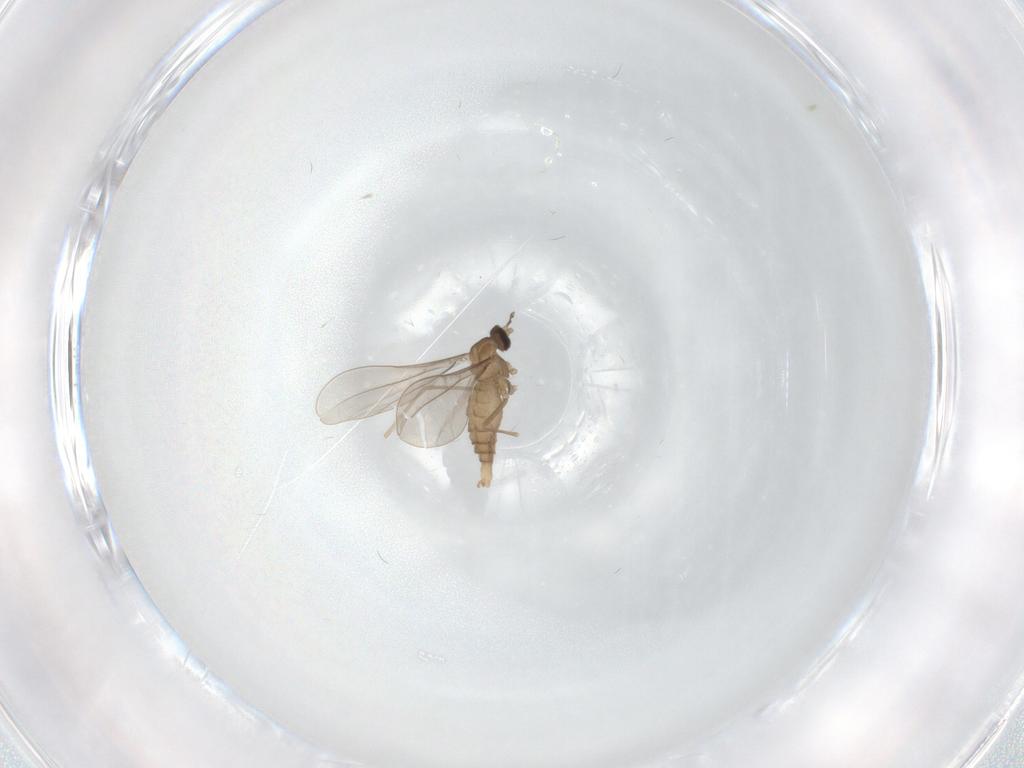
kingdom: Animalia
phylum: Arthropoda
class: Insecta
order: Diptera
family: Cecidomyiidae
